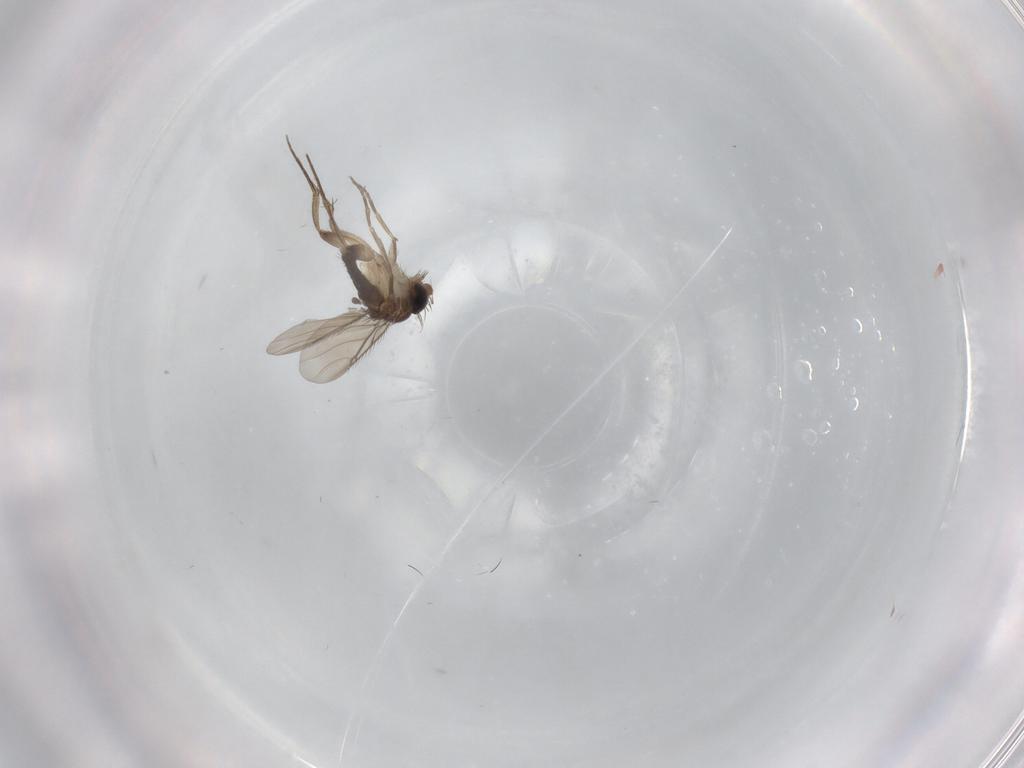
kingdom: Animalia
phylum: Arthropoda
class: Insecta
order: Diptera
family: Phoridae
